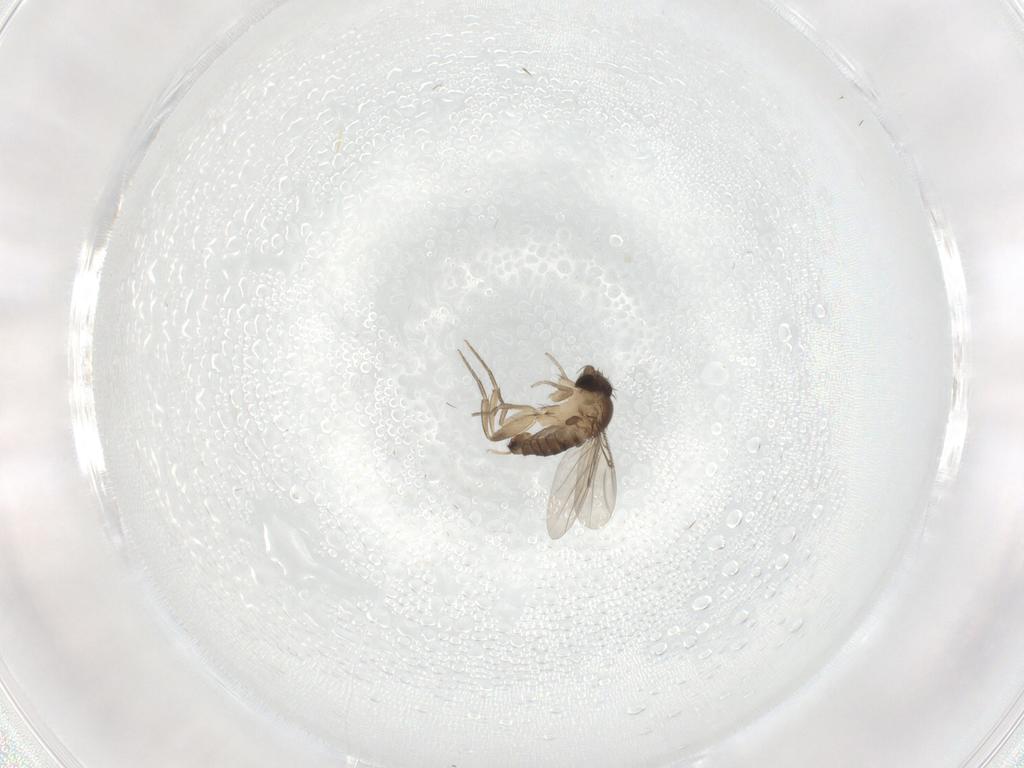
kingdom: Animalia
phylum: Arthropoda
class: Insecta
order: Diptera
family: Phoridae
